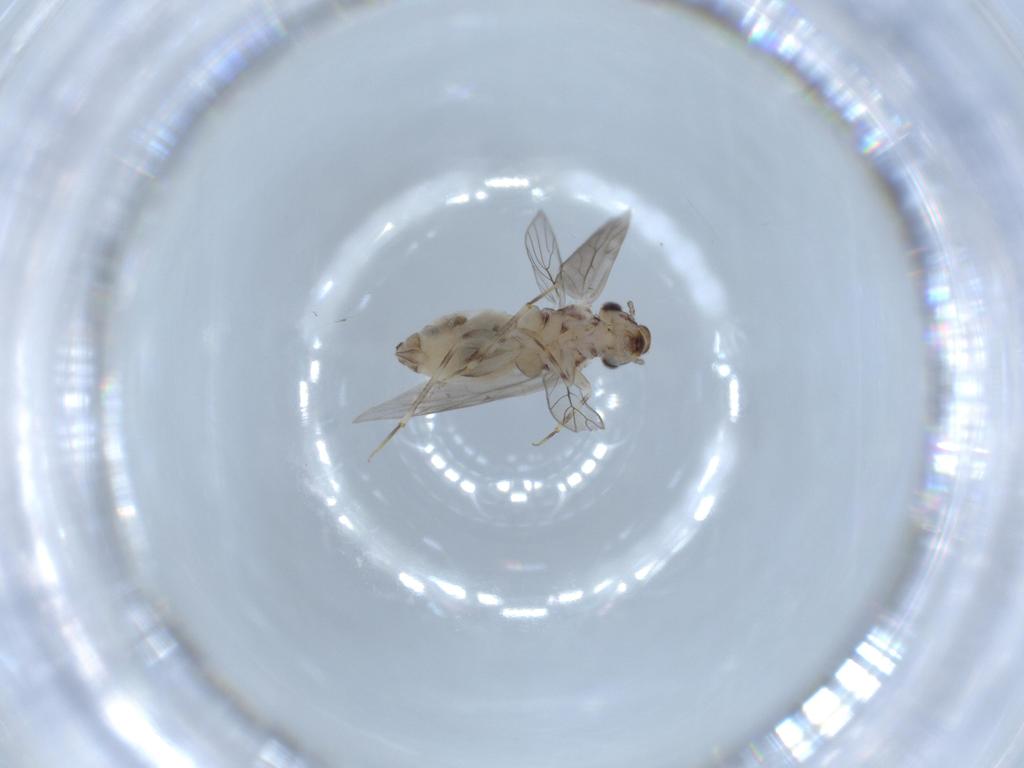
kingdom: Animalia
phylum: Arthropoda
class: Insecta
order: Psocodea
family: Lepidopsocidae
